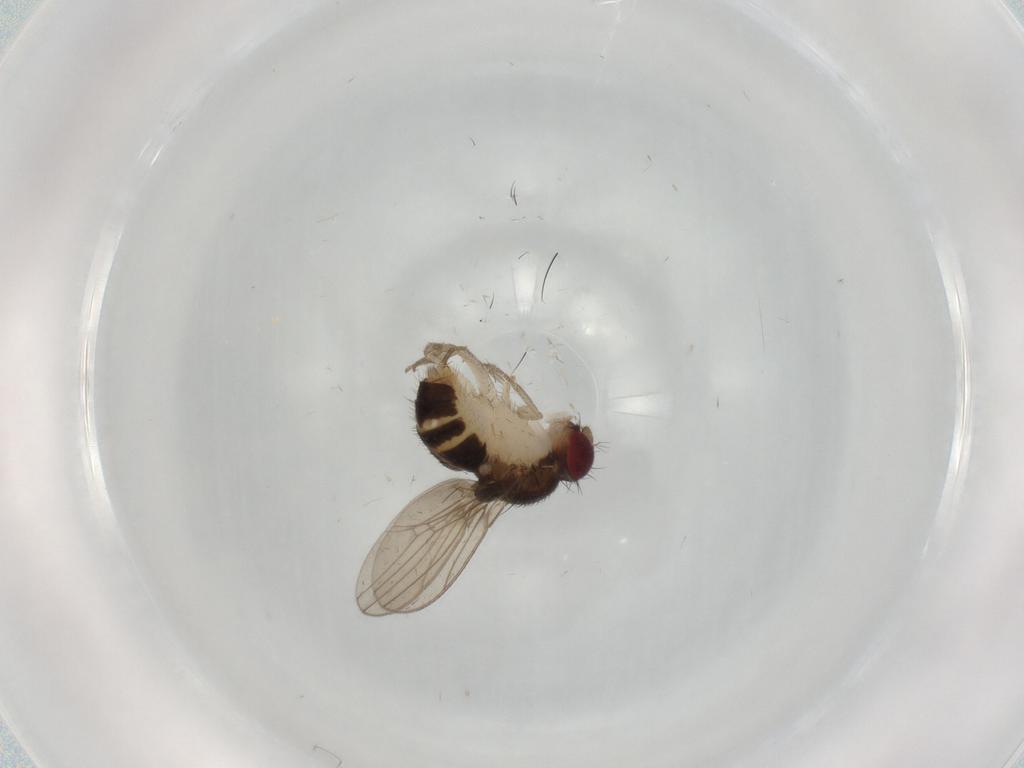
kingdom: Animalia
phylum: Arthropoda
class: Insecta
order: Diptera
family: Drosophilidae
